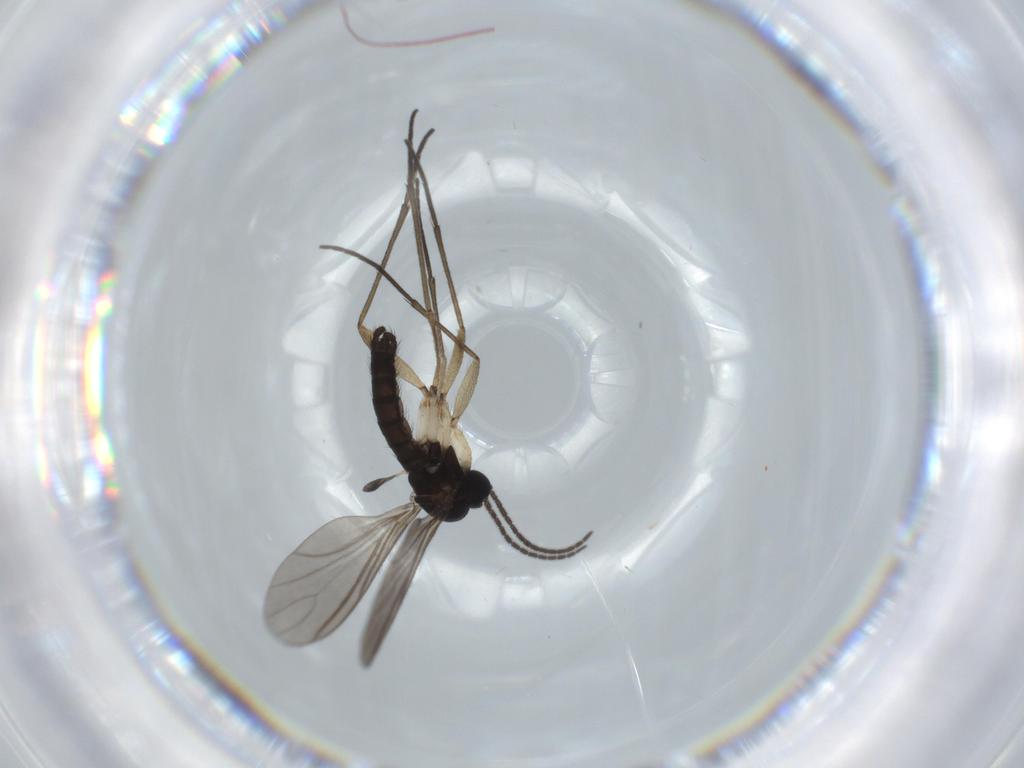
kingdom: Animalia
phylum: Arthropoda
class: Insecta
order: Diptera
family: Sciaridae
